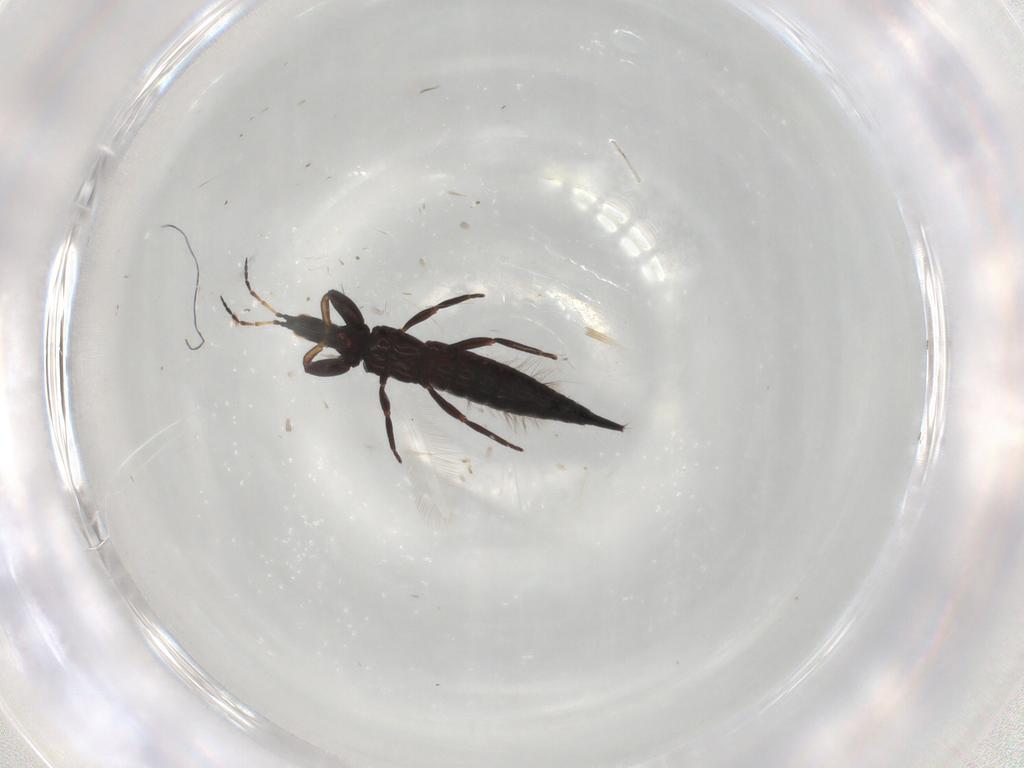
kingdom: Animalia
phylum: Arthropoda
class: Insecta
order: Thysanoptera
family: Phlaeothripidae
